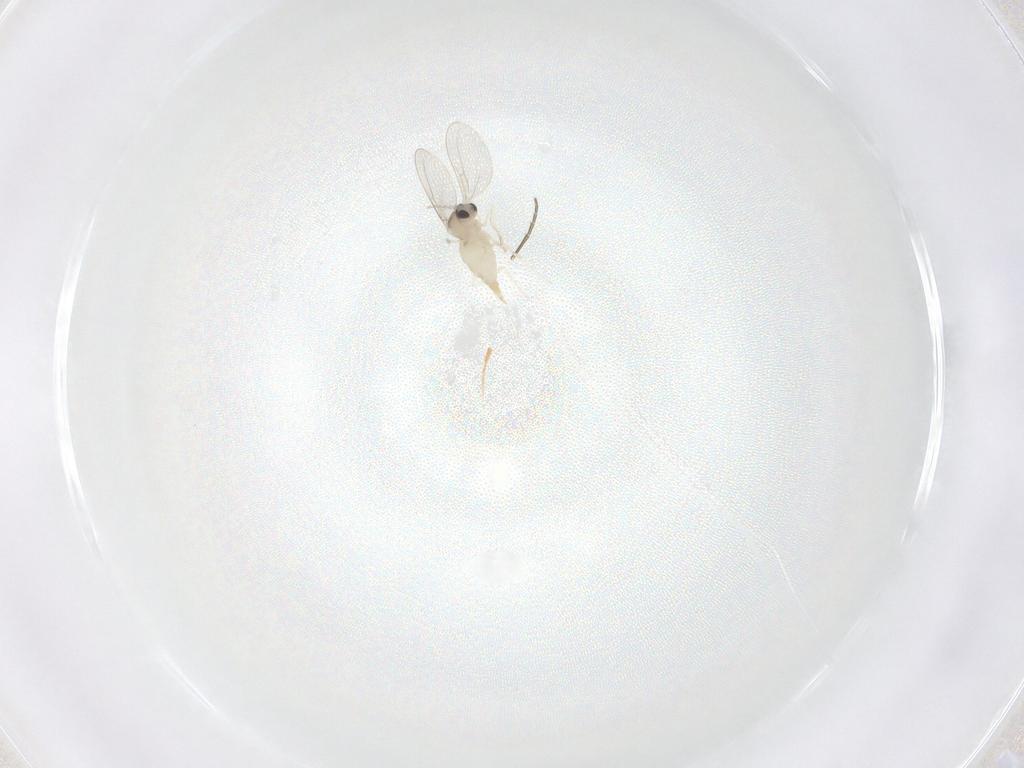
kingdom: Animalia
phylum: Arthropoda
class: Insecta
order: Diptera
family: Cecidomyiidae
